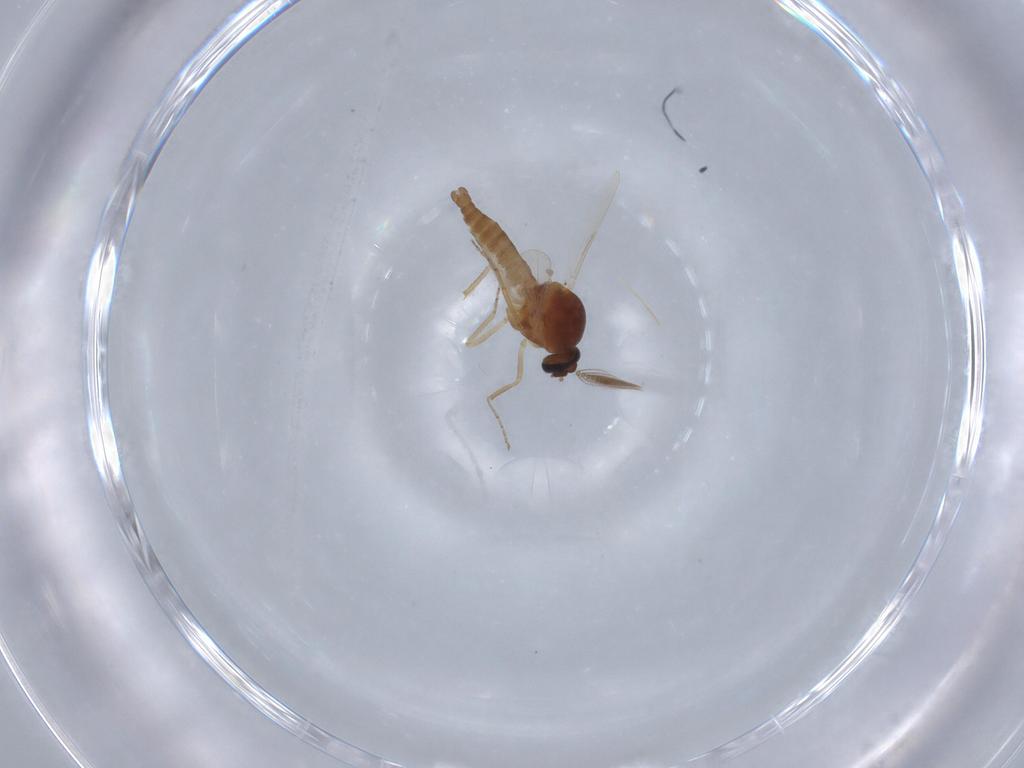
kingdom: Animalia
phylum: Arthropoda
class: Insecta
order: Diptera
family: Ceratopogonidae
